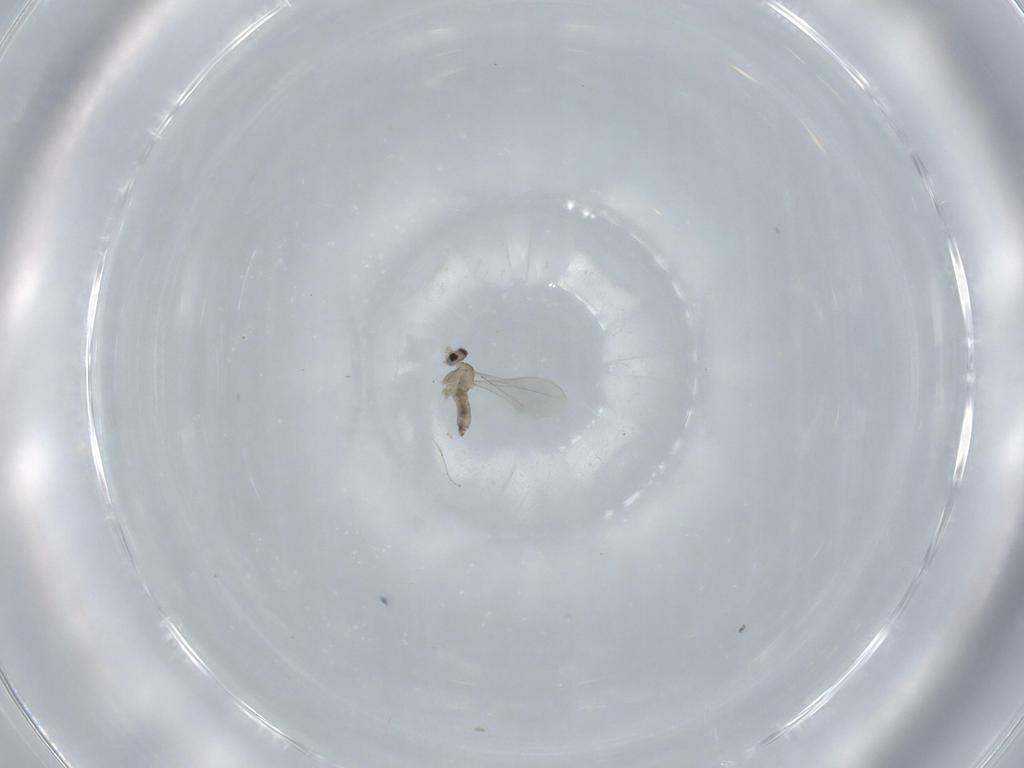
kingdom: Animalia
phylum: Arthropoda
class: Insecta
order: Diptera
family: Cecidomyiidae
